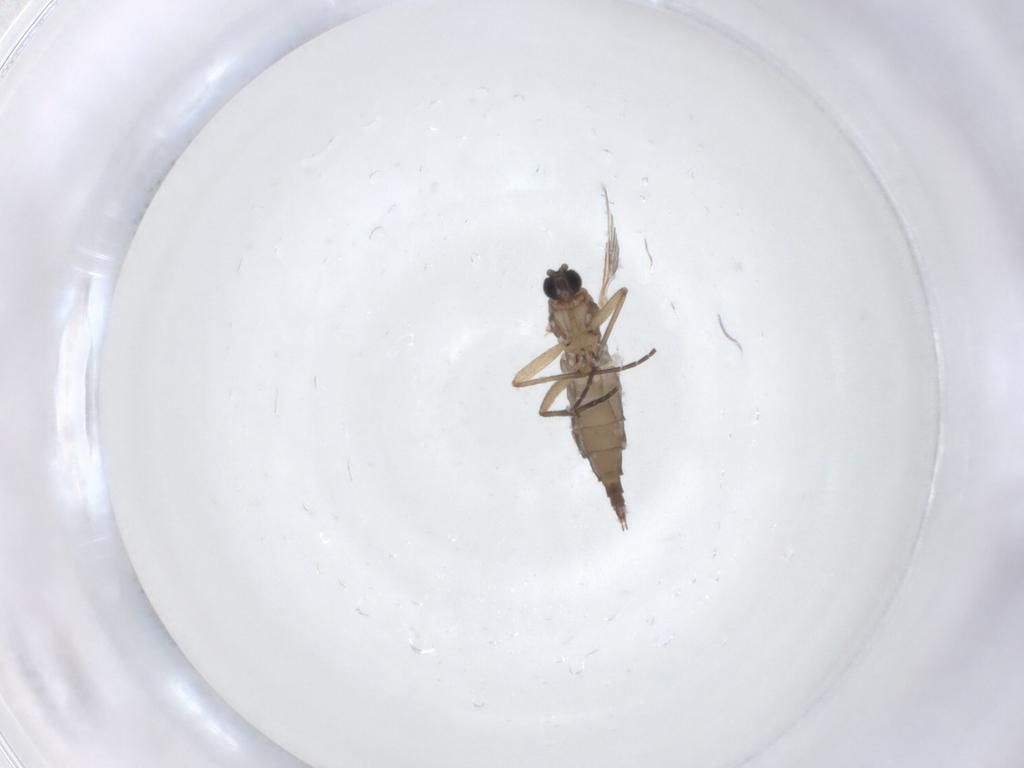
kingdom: Animalia
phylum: Arthropoda
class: Insecta
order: Diptera
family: Sciaridae
